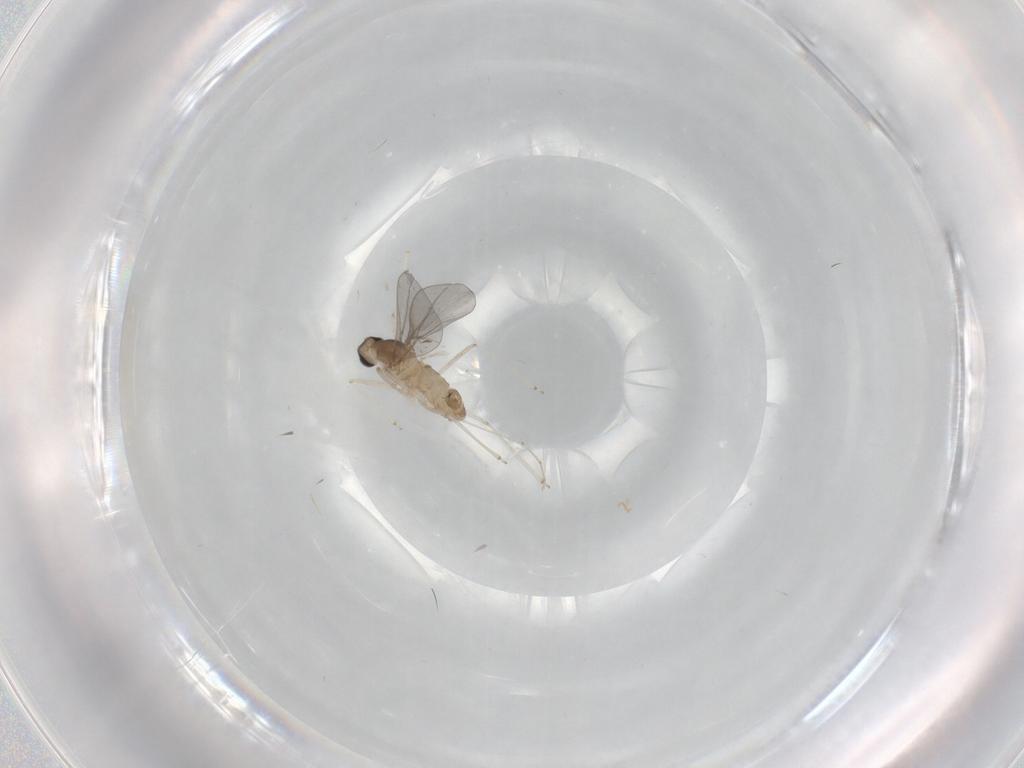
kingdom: Animalia
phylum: Arthropoda
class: Insecta
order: Diptera
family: Cecidomyiidae
